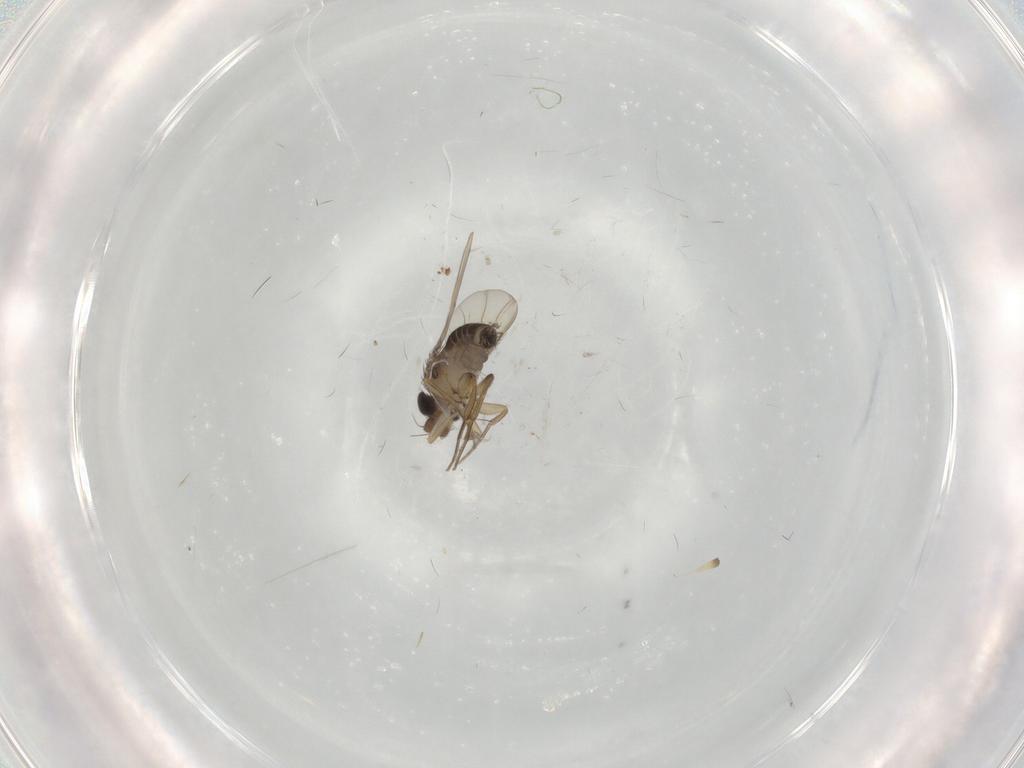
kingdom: Animalia
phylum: Arthropoda
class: Insecta
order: Diptera
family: Phoridae
